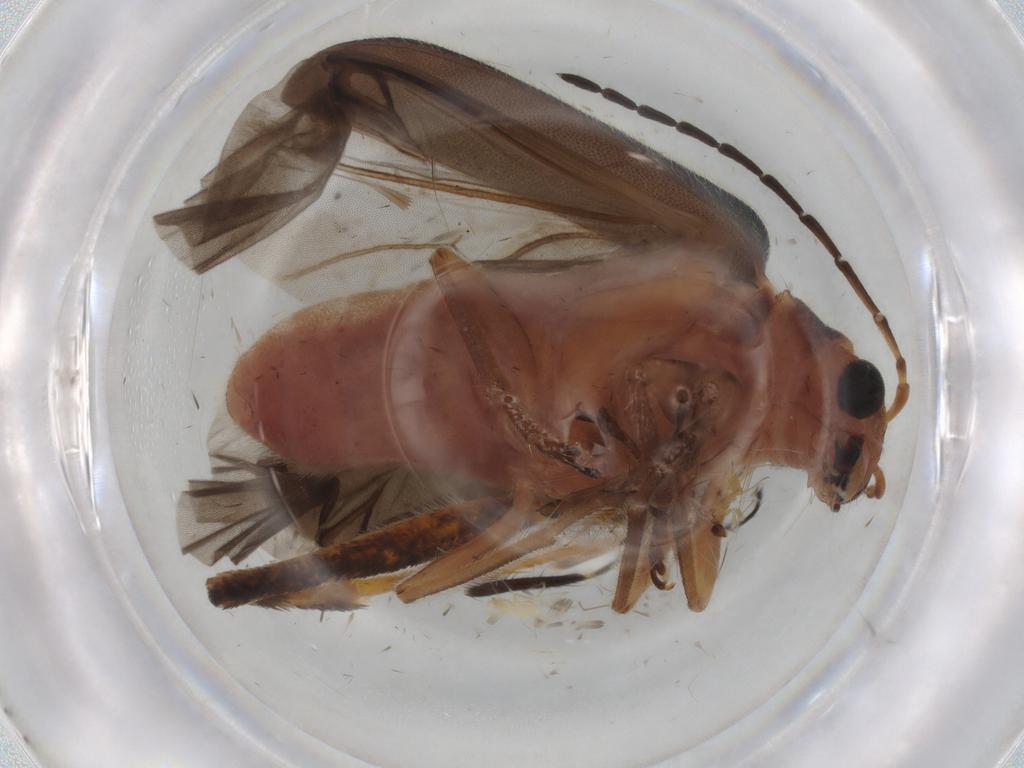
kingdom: Animalia
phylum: Arthropoda
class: Insecta
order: Coleoptera
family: Chrysomelidae
